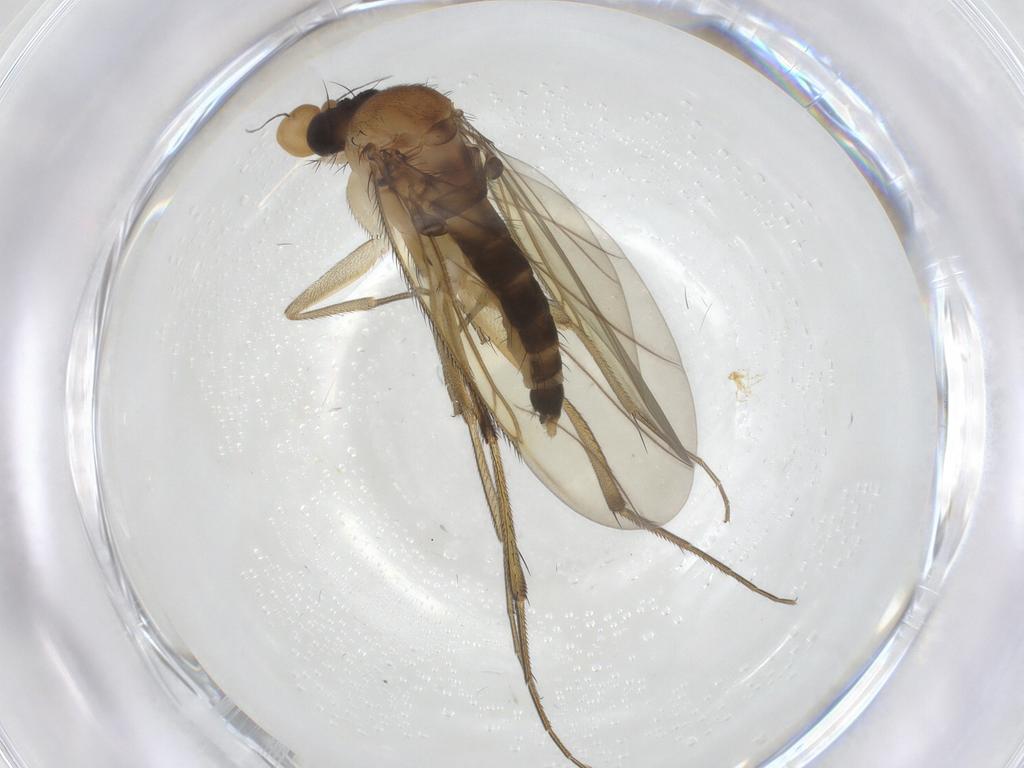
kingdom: Animalia
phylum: Arthropoda
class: Insecta
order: Diptera
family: Phoridae
